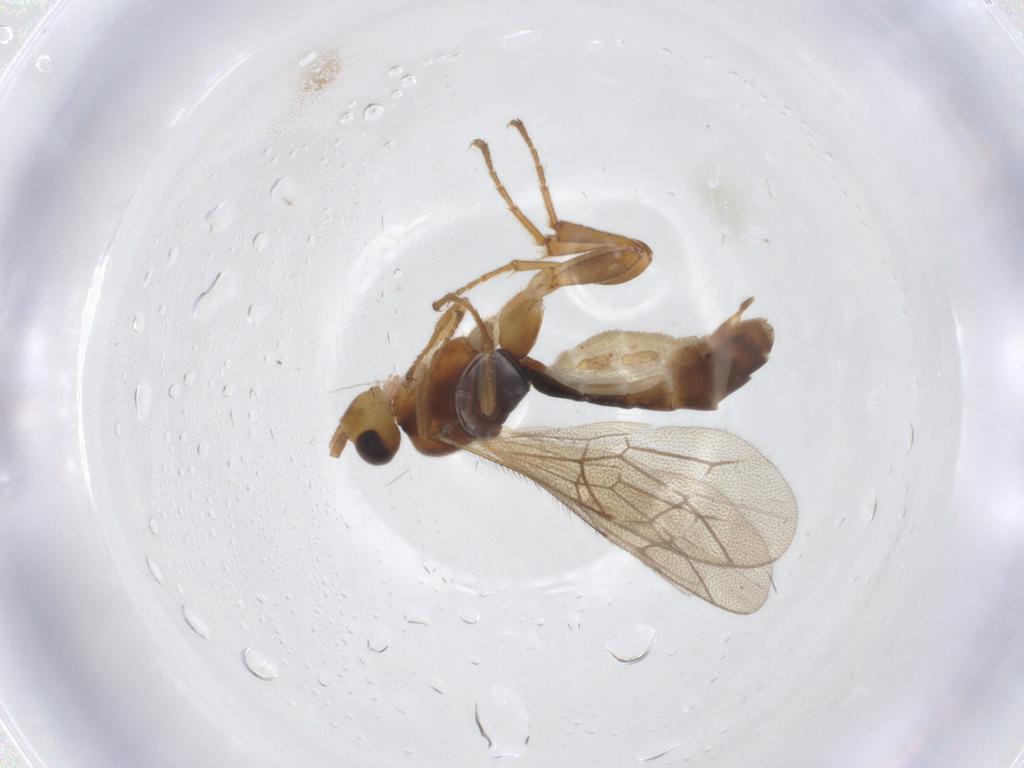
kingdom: Animalia
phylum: Arthropoda
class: Insecta
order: Hymenoptera
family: Ichneumonidae
